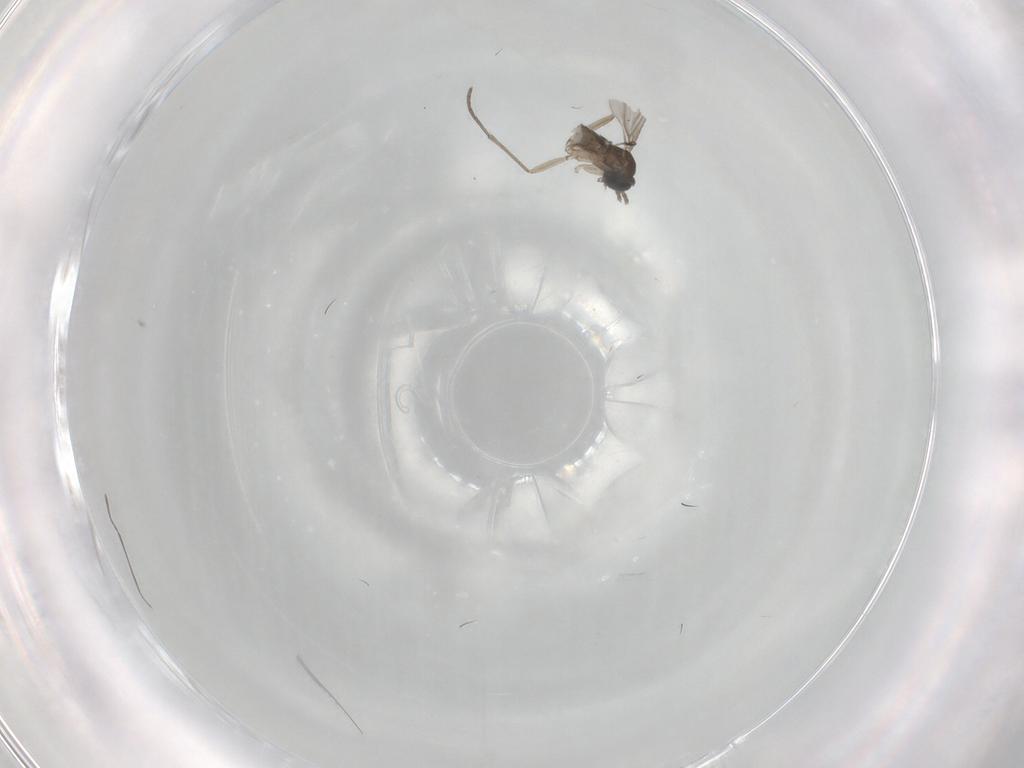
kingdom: Animalia
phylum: Arthropoda
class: Insecta
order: Diptera
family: Sciaridae
